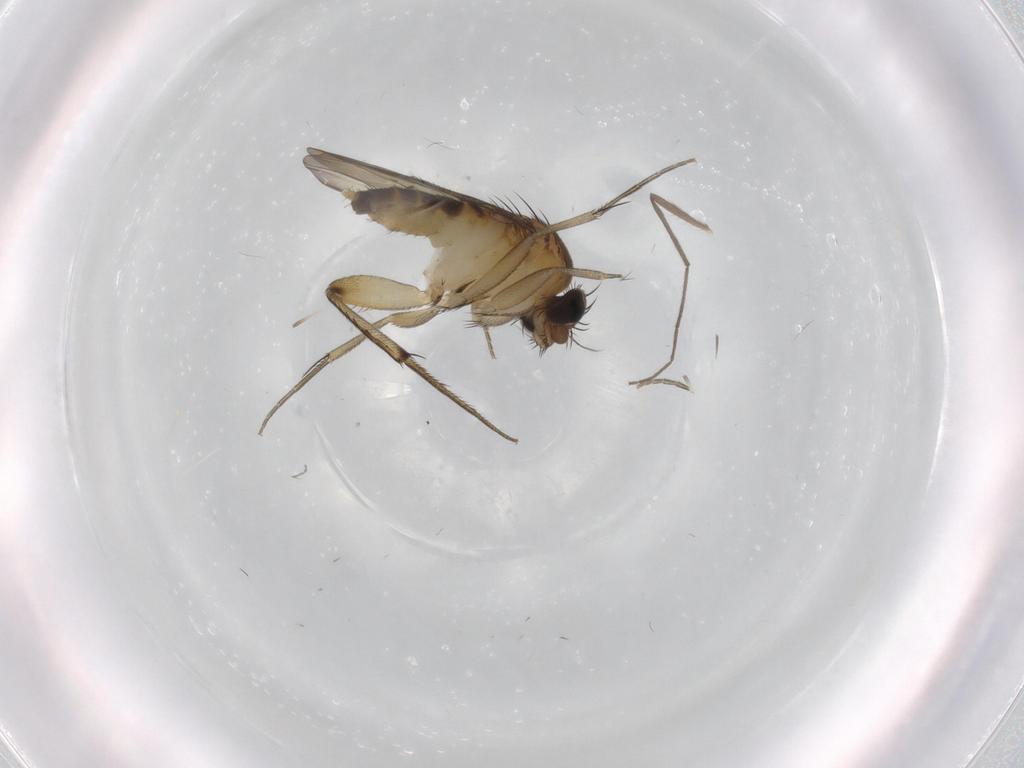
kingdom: Animalia
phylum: Arthropoda
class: Insecta
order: Diptera
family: Phoridae
